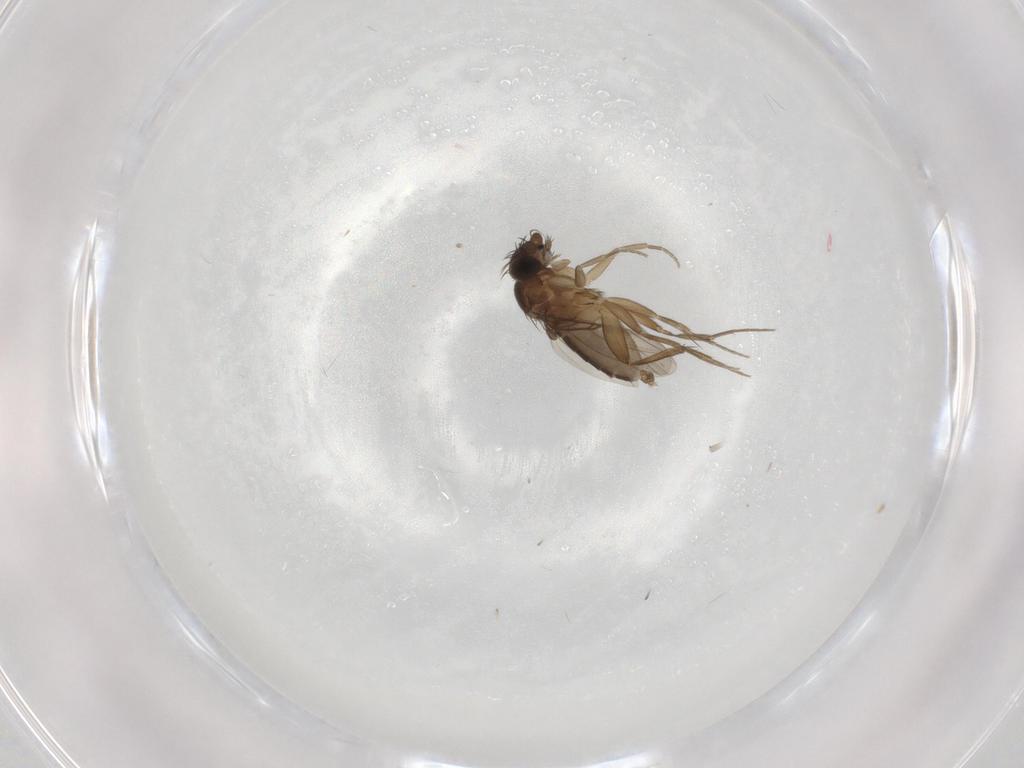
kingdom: Animalia
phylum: Arthropoda
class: Insecta
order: Diptera
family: Phoridae
